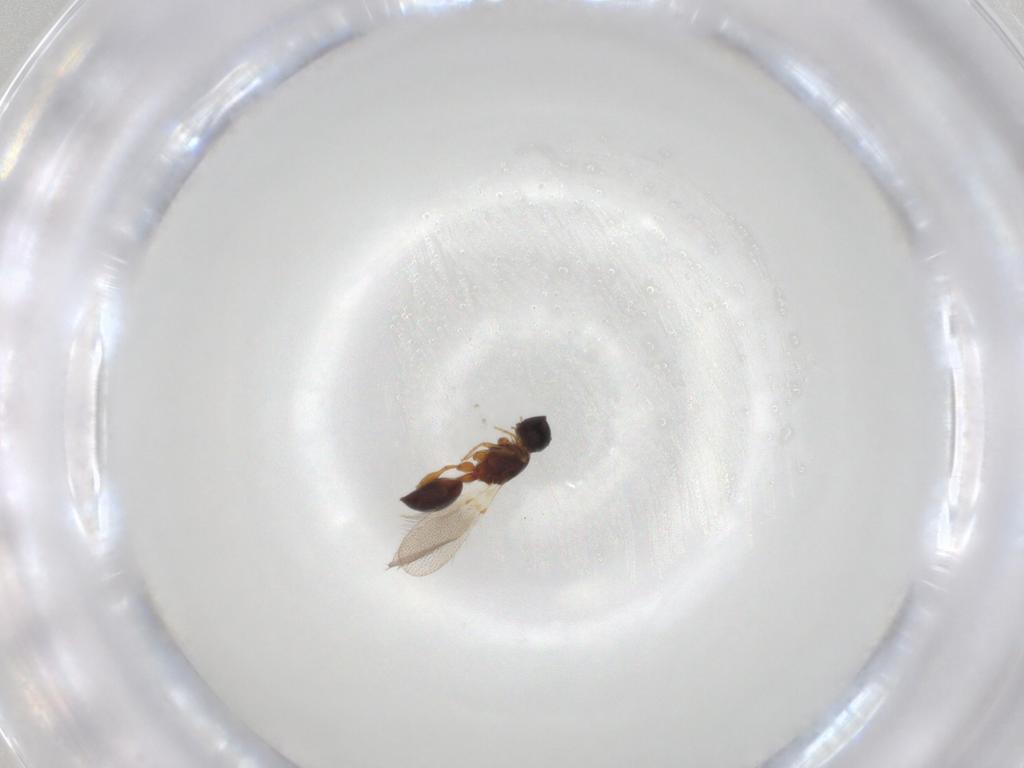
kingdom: Animalia
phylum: Arthropoda
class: Insecta
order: Hymenoptera
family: Diapriidae
